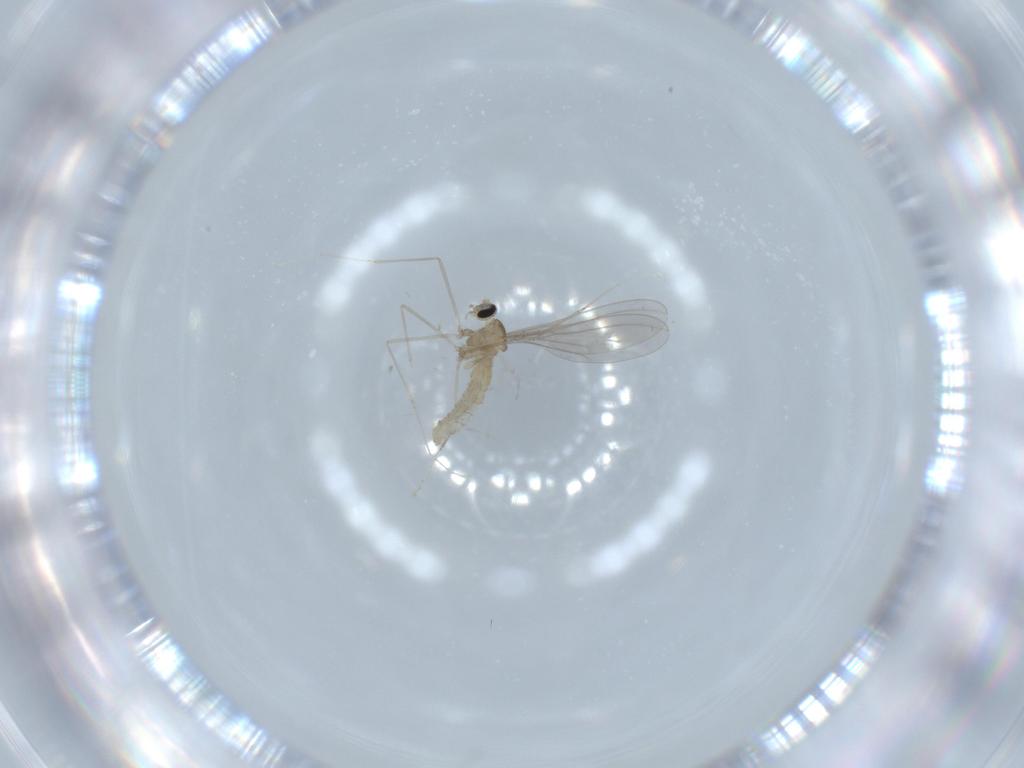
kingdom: Animalia
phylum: Arthropoda
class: Insecta
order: Diptera
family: Cecidomyiidae
